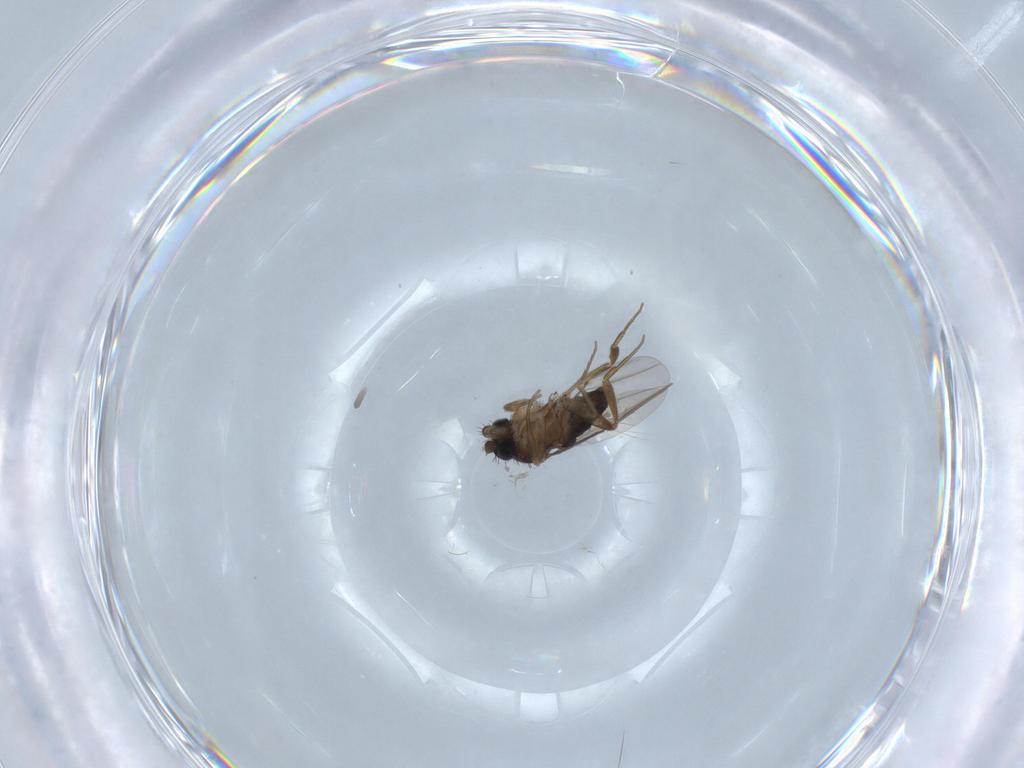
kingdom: Animalia
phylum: Arthropoda
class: Insecta
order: Diptera
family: Phoridae
